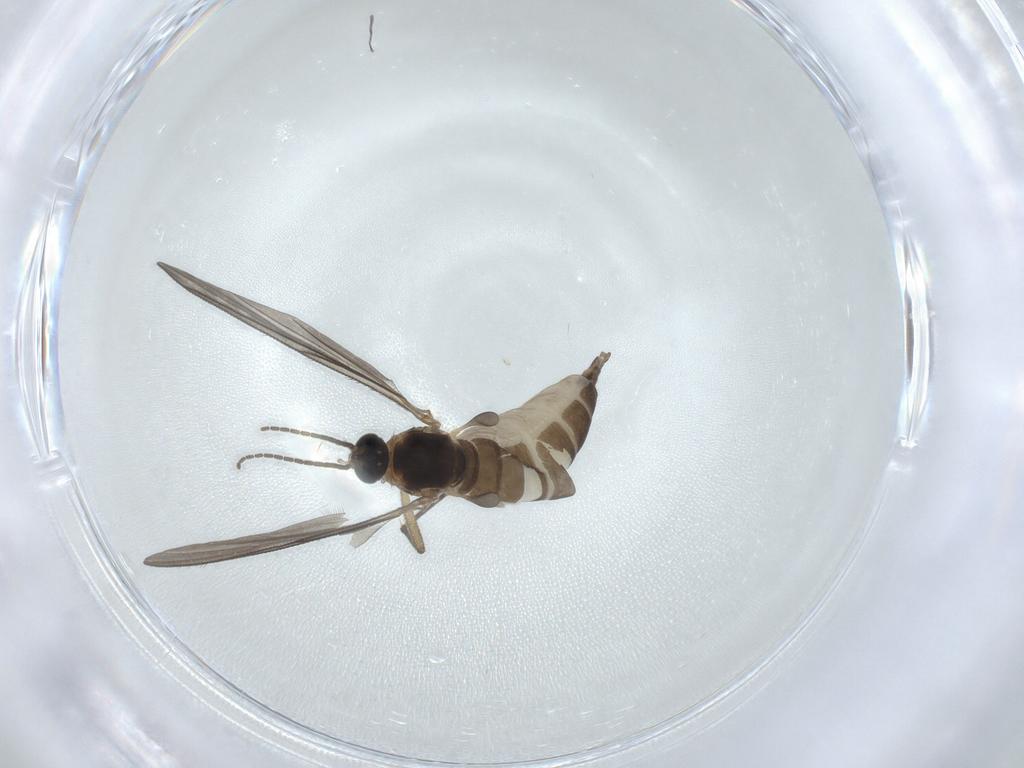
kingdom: Animalia
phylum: Arthropoda
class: Insecta
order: Diptera
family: Sciaridae
